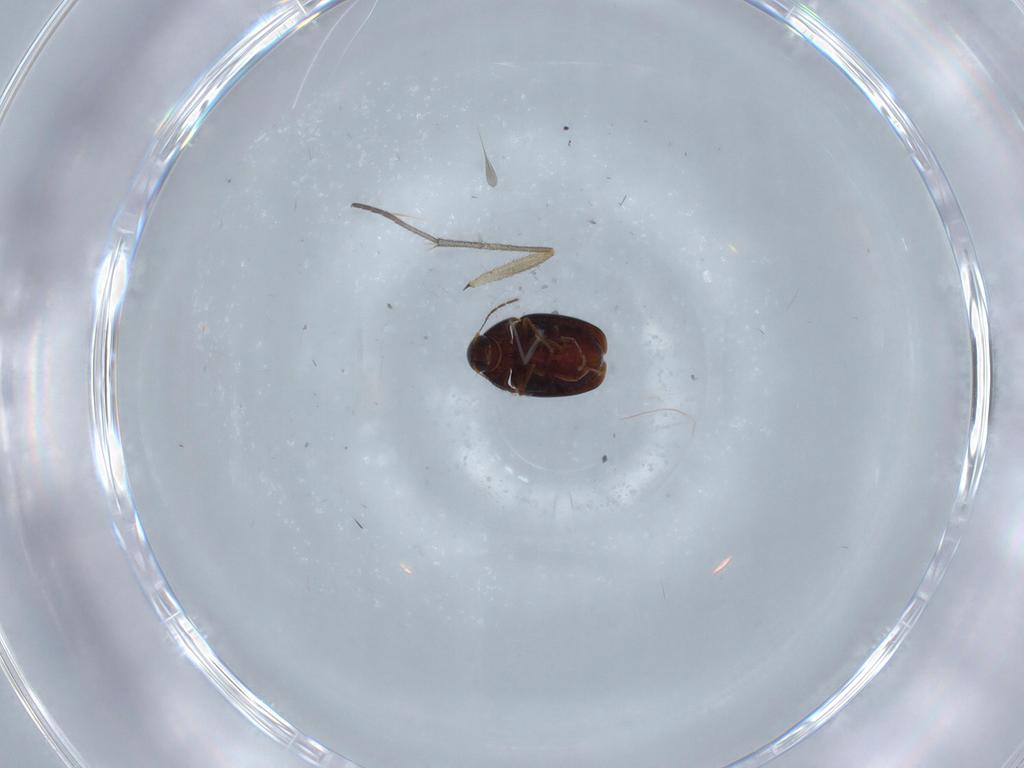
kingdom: Animalia
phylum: Arthropoda
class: Insecta
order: Coleoptera
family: Staphylinidae
